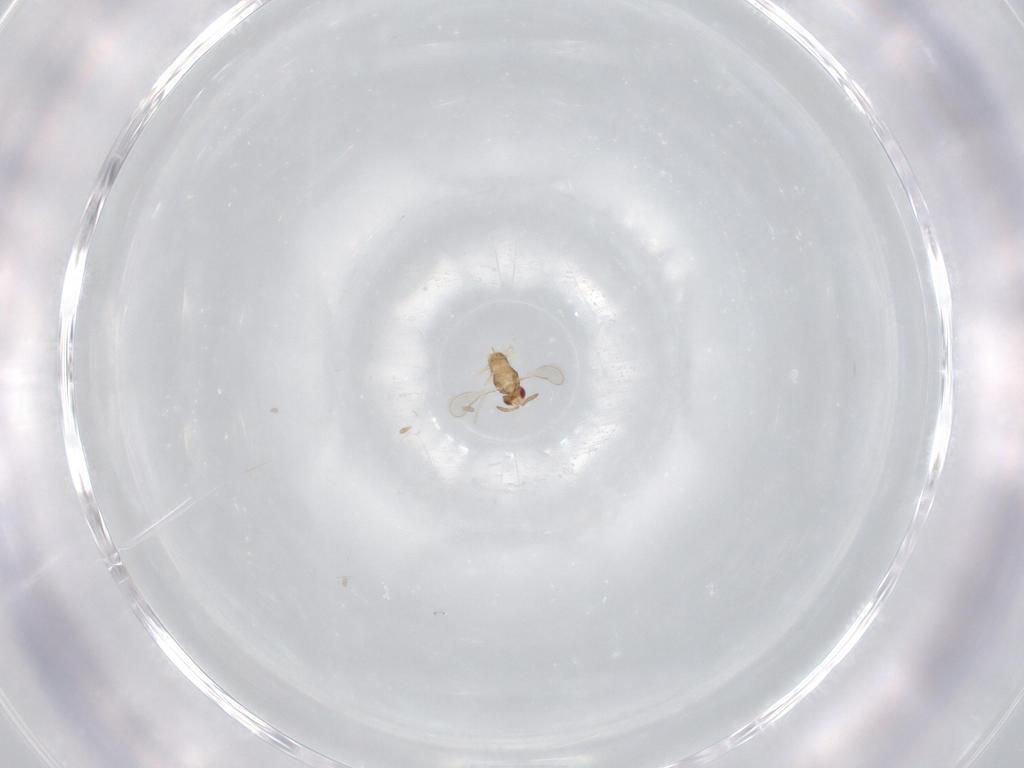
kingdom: Animalia
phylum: Arthropoda
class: Insecta
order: Hymenoptera
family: Aphelinidae
